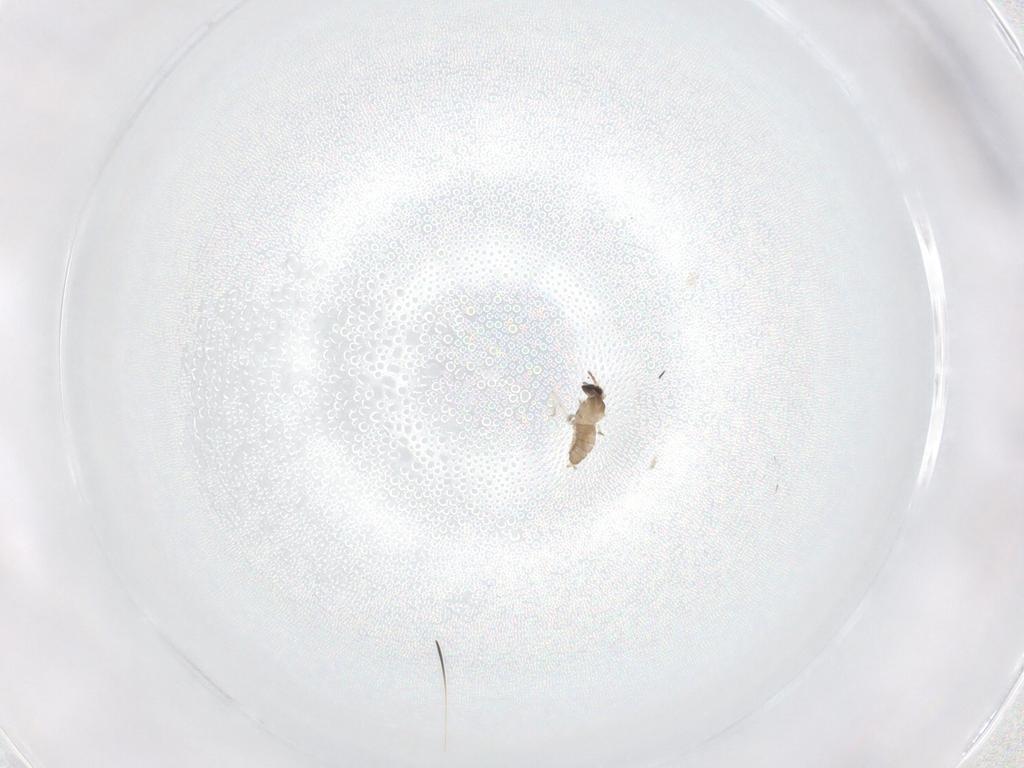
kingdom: Animalia
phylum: Arthropoda
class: Insecta
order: Diptera
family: Cecidomyiidae
